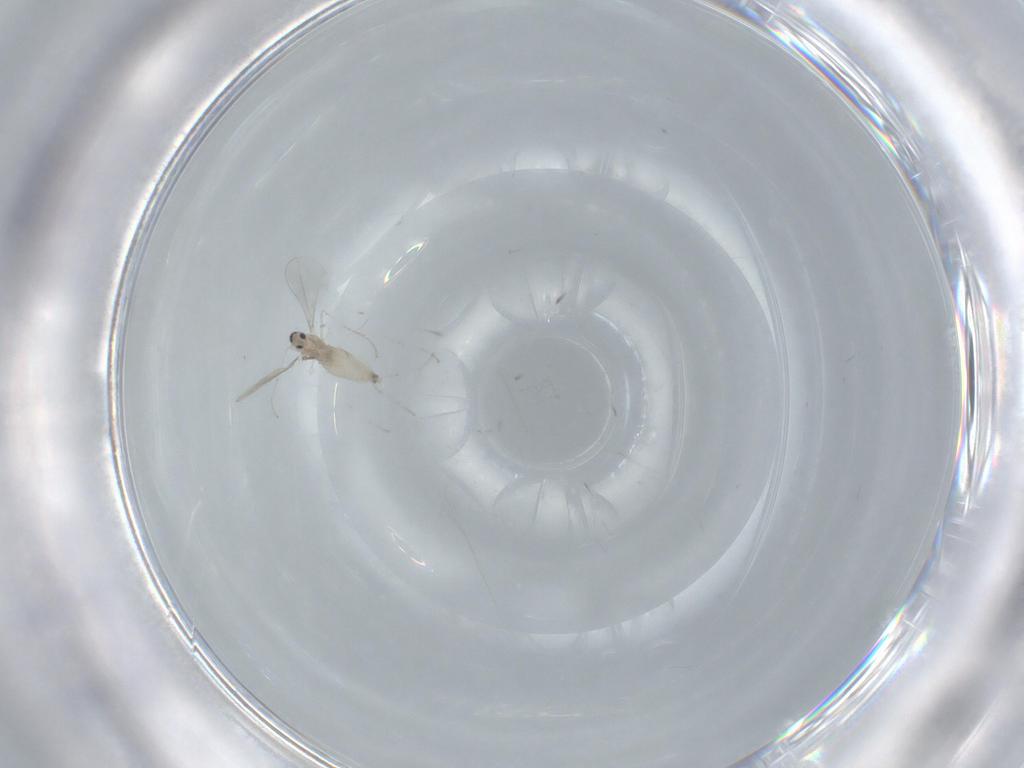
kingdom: Animalia
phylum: Arthropoda
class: Insecta
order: Diptera
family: Cecidomyiidae
